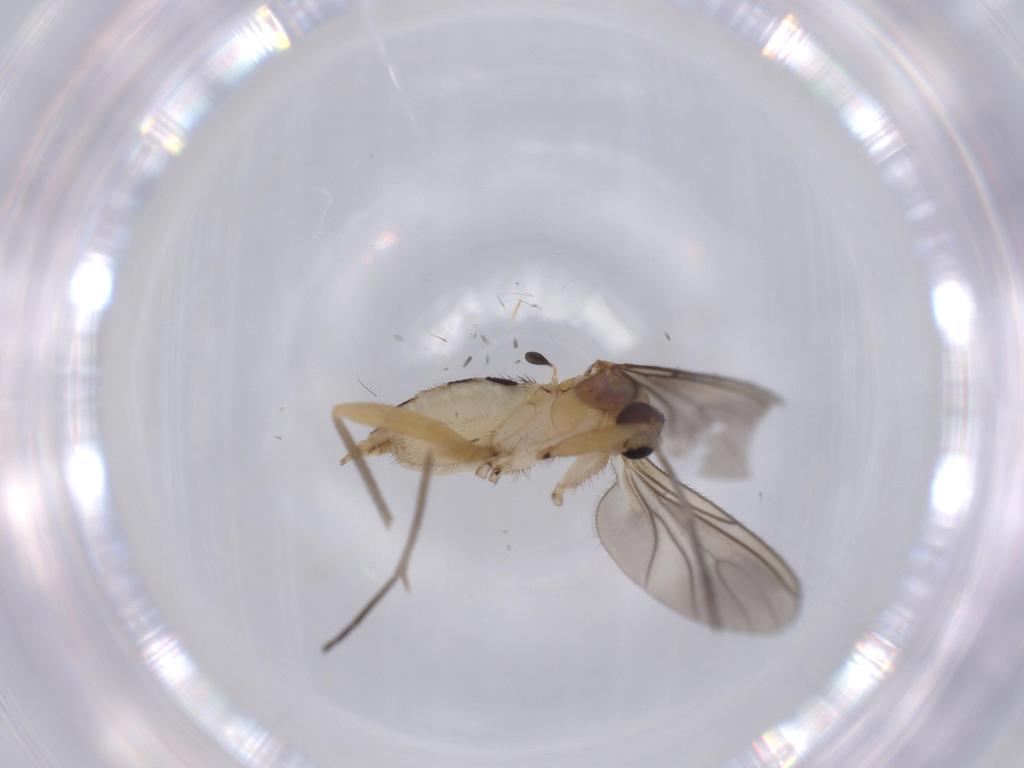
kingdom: Animalia
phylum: Arthropoda
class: Insecta
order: Diptera
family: Sciaridae
